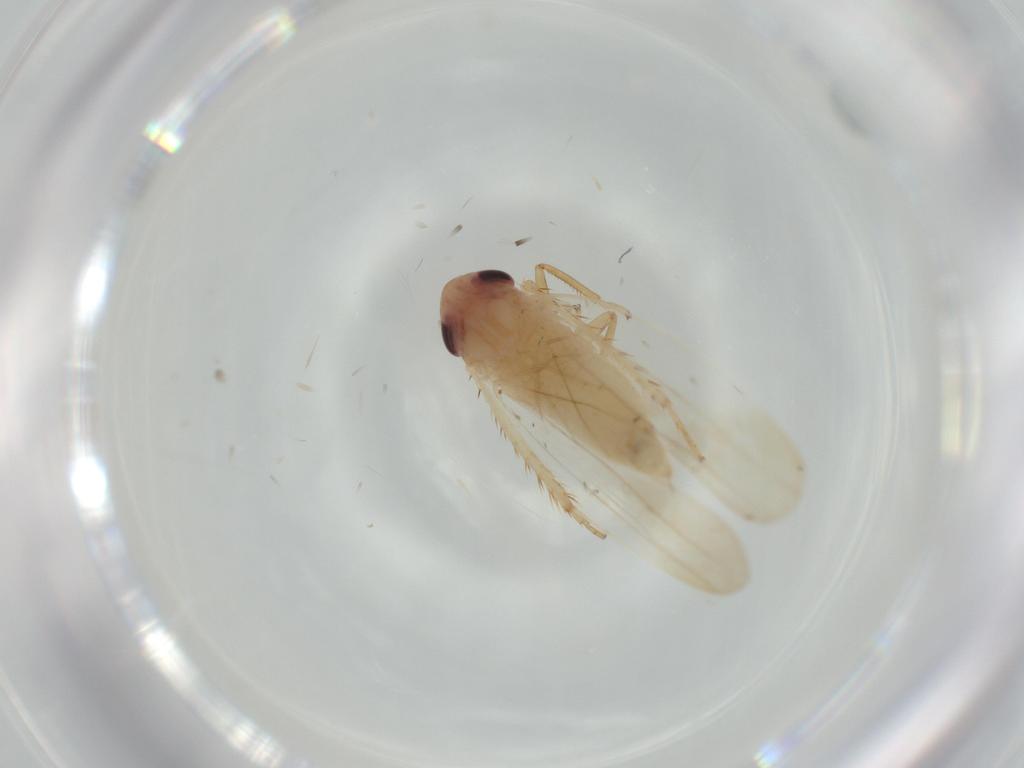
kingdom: Animalia
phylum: Arthropoda
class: Insecta
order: Hemiptera
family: Cicadellidae
